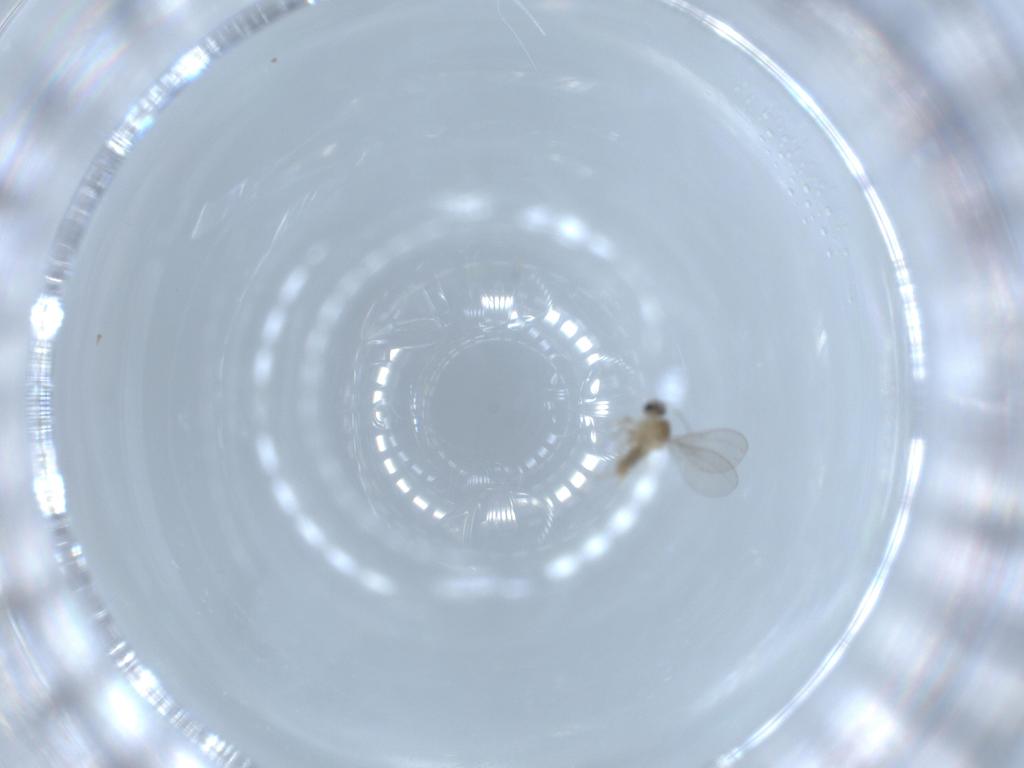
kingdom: Animalia
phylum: Arthropoda
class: Insecta
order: Diptera
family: Cecidomyiidae
